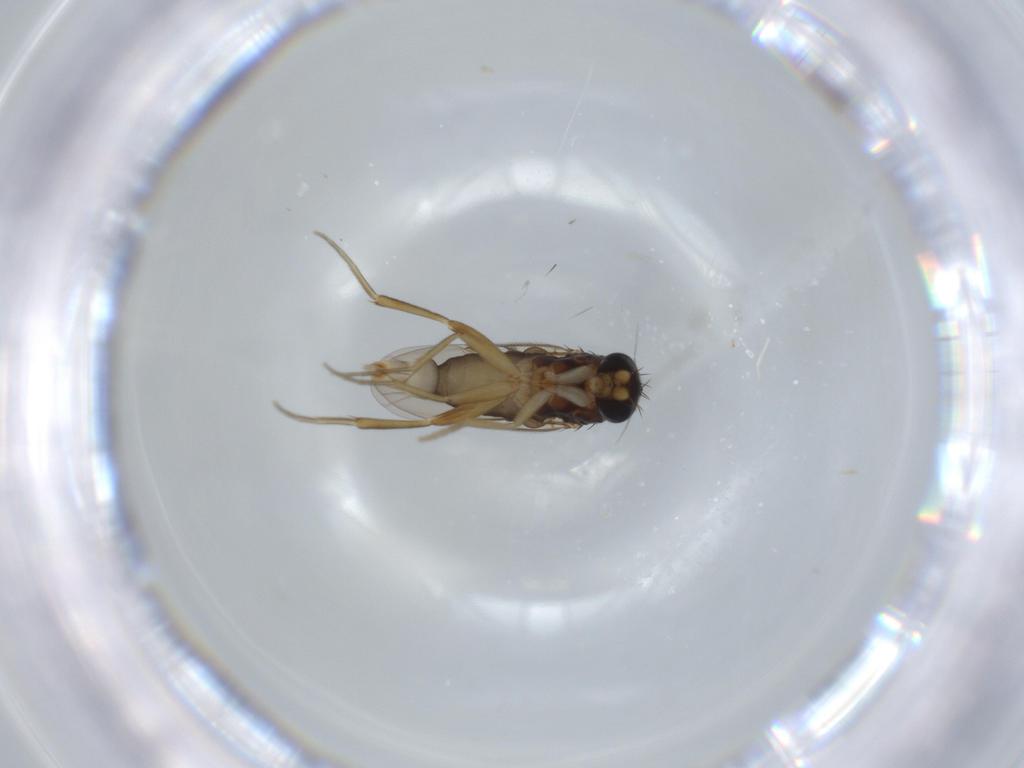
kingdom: Animalia
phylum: Arthropoda
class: Insecta
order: Diptera
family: Phoridae
